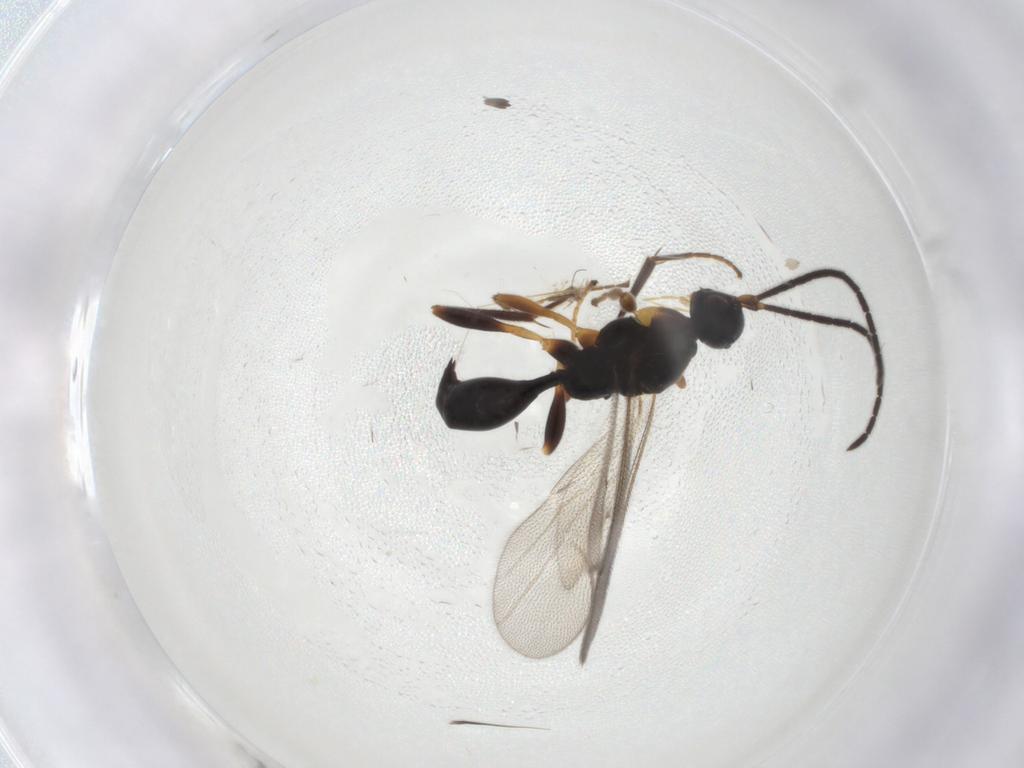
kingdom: Animalia
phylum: Arthropoda
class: Insecta
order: Hymenoptera
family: Proctotrupidae
